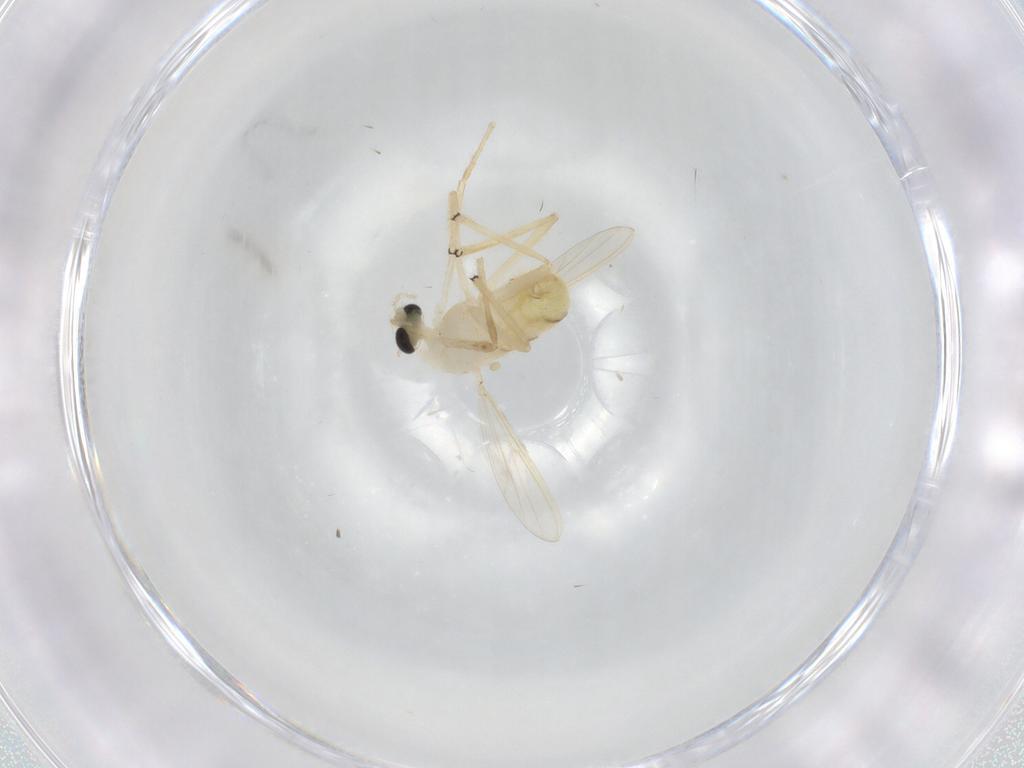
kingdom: Animalia
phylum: Arthropoda
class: Insecta
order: Diptera
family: Chironomidae
